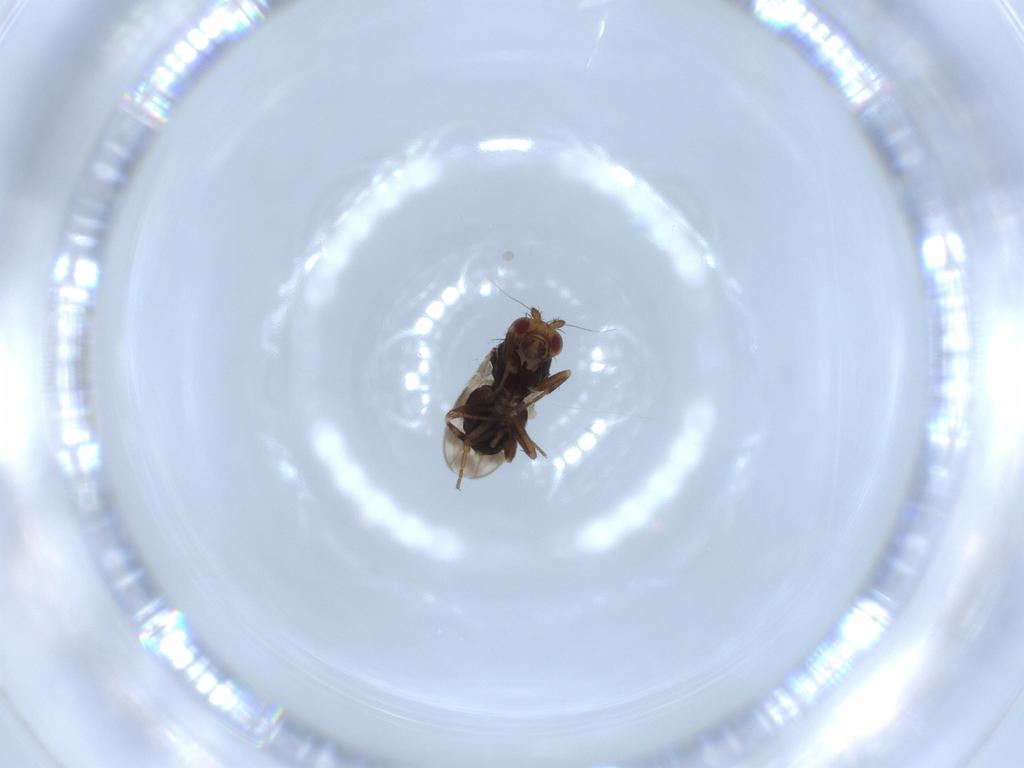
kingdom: Animalia
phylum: Arthropoda
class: Insecta
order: Diptera
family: Sphaeroceridae
